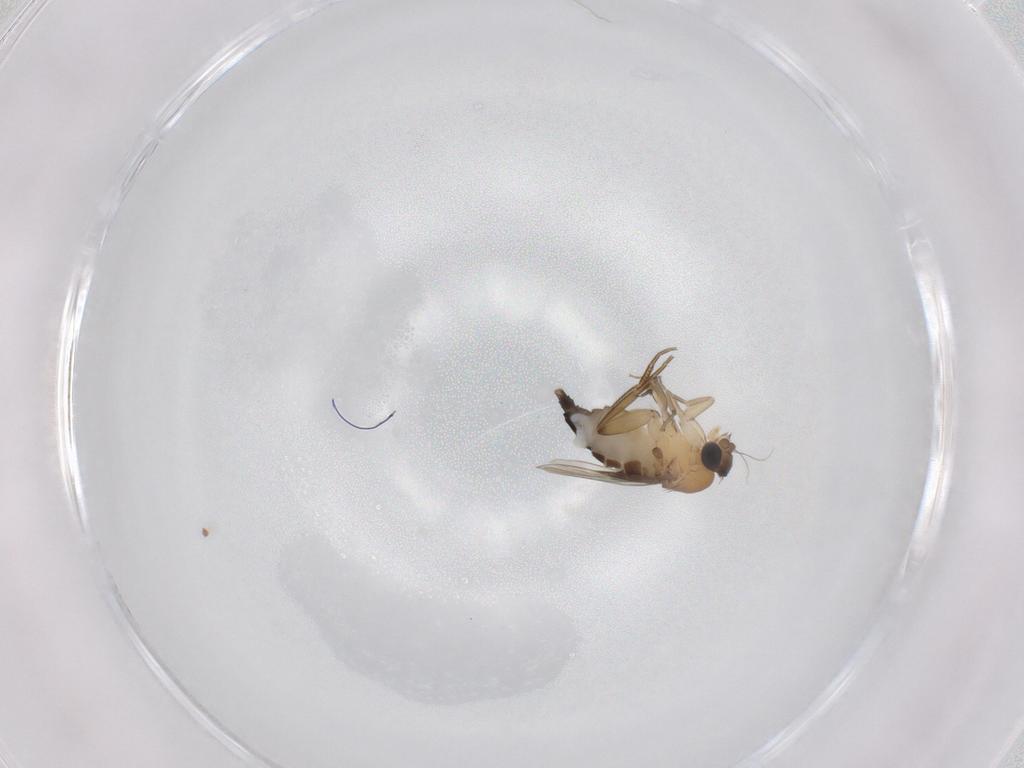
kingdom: Animalia
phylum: Arthropoda
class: Insecta
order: Diptera
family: Phoridae
